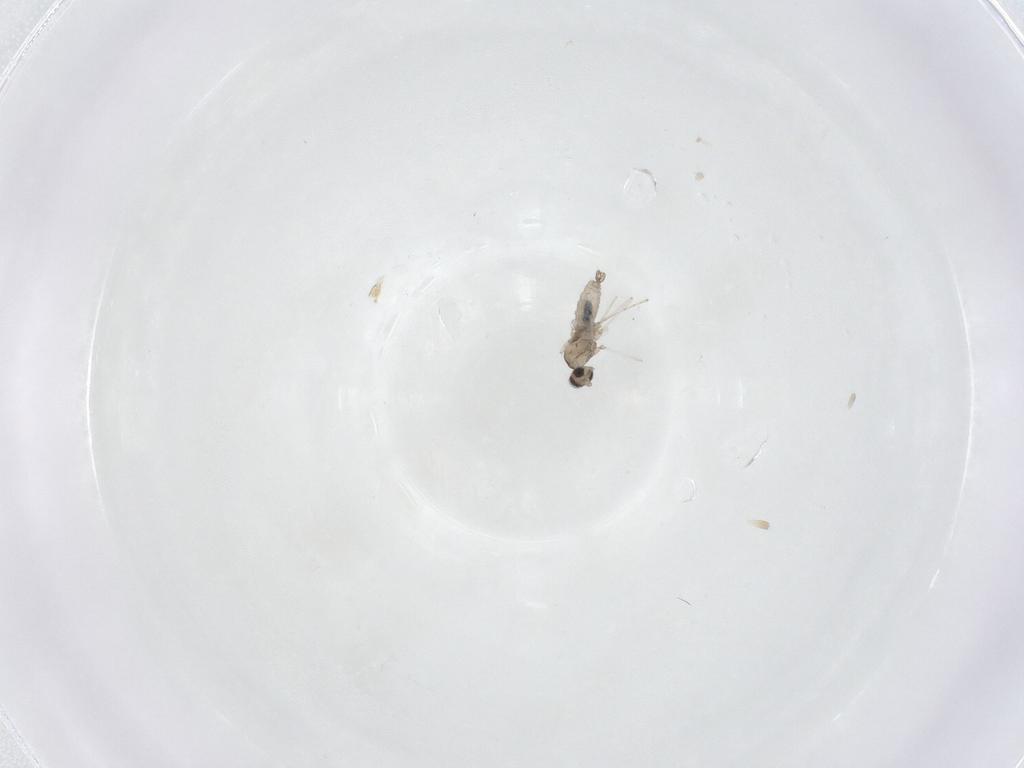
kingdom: Animalia
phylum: Arthropoda
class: Insecta
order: Diptera
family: Cecidomyiidae
